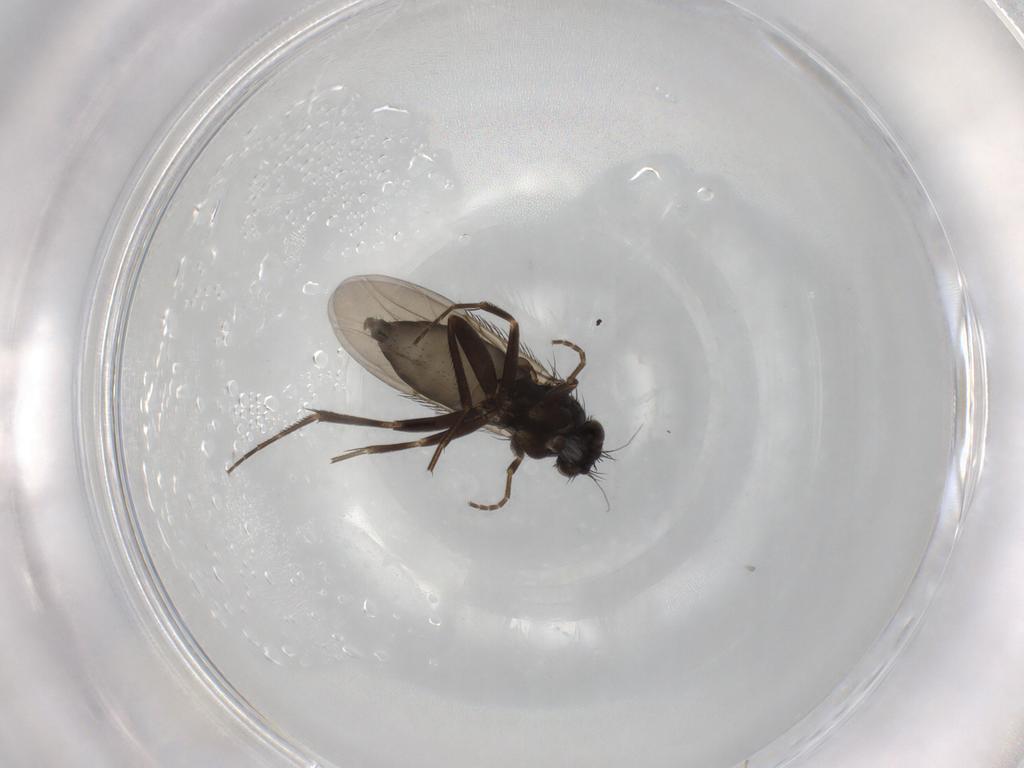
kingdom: Animalia
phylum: Arthropoda
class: Insecta
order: Diptera
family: Phoridae
